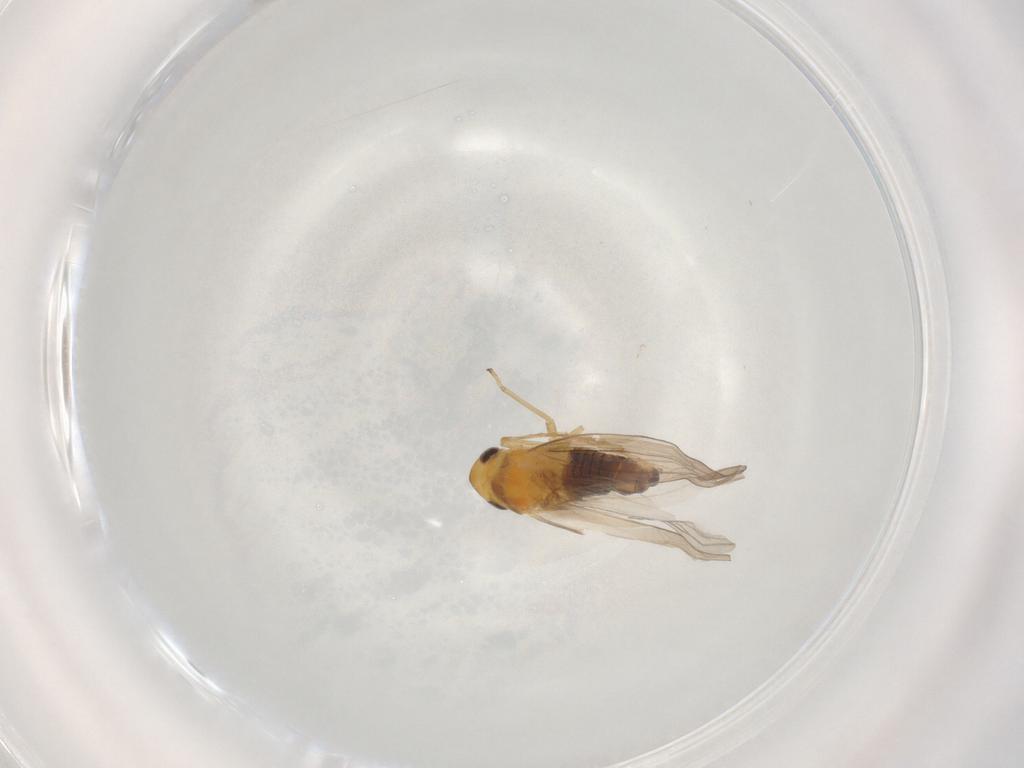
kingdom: Animalia
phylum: Arthropoda
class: Insecta
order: Hemiptera
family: Cicadellidae
